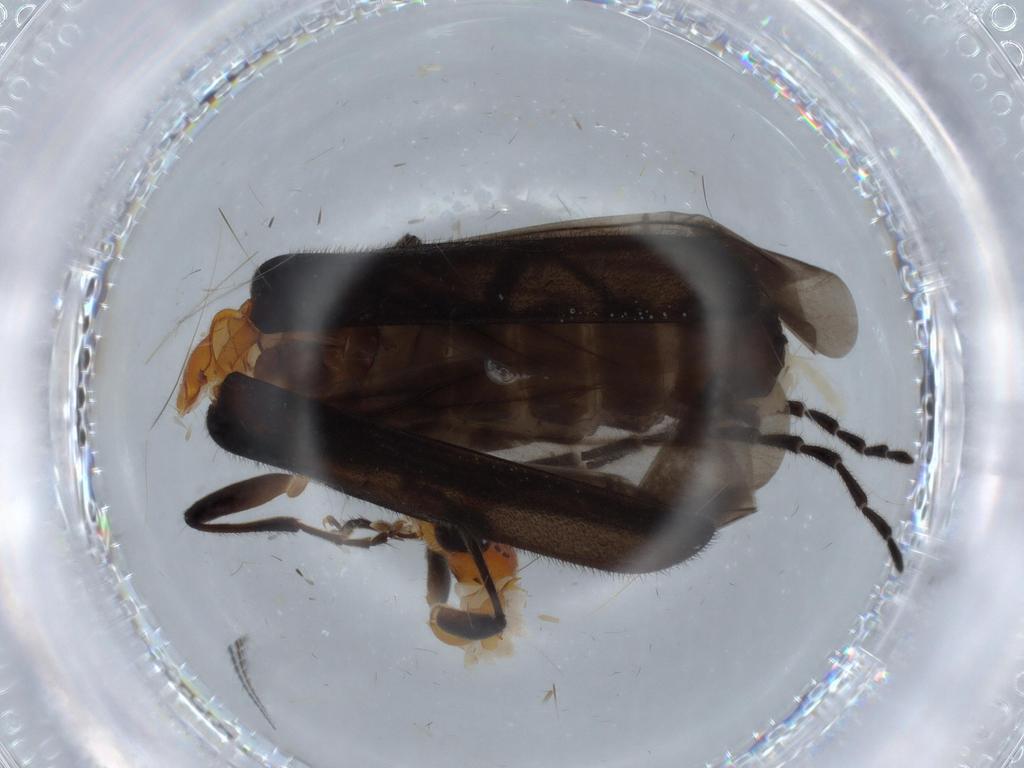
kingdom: Animalia
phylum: Arthropoda
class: Insecta
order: Coleoptera
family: Cantharidae
